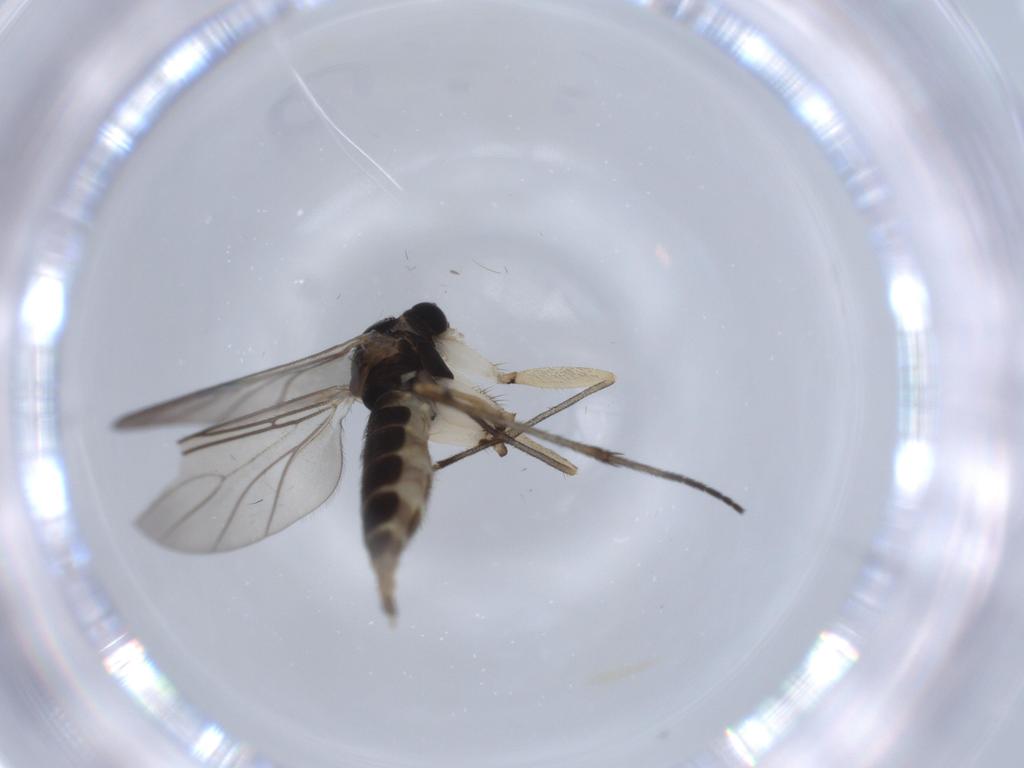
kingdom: Animalia
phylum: Arthropoda
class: Insecta
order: Diptera
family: Sciaridae
